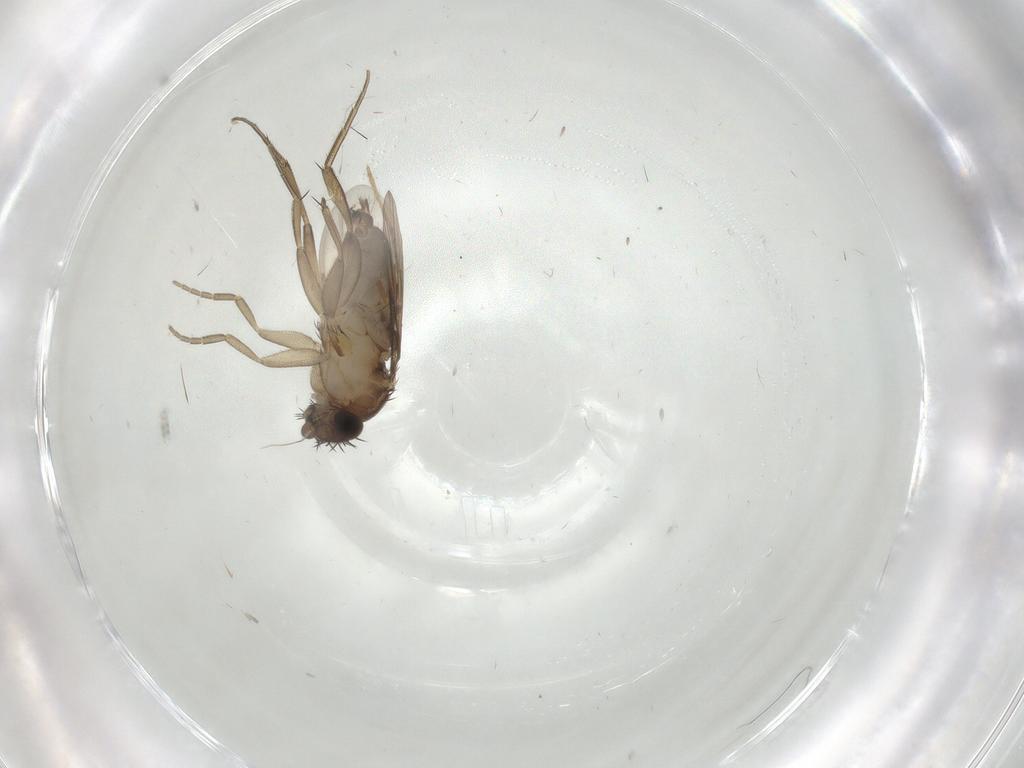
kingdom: Animalia
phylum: Arthropoda
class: Insecta
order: Diptera
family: Phoridae
